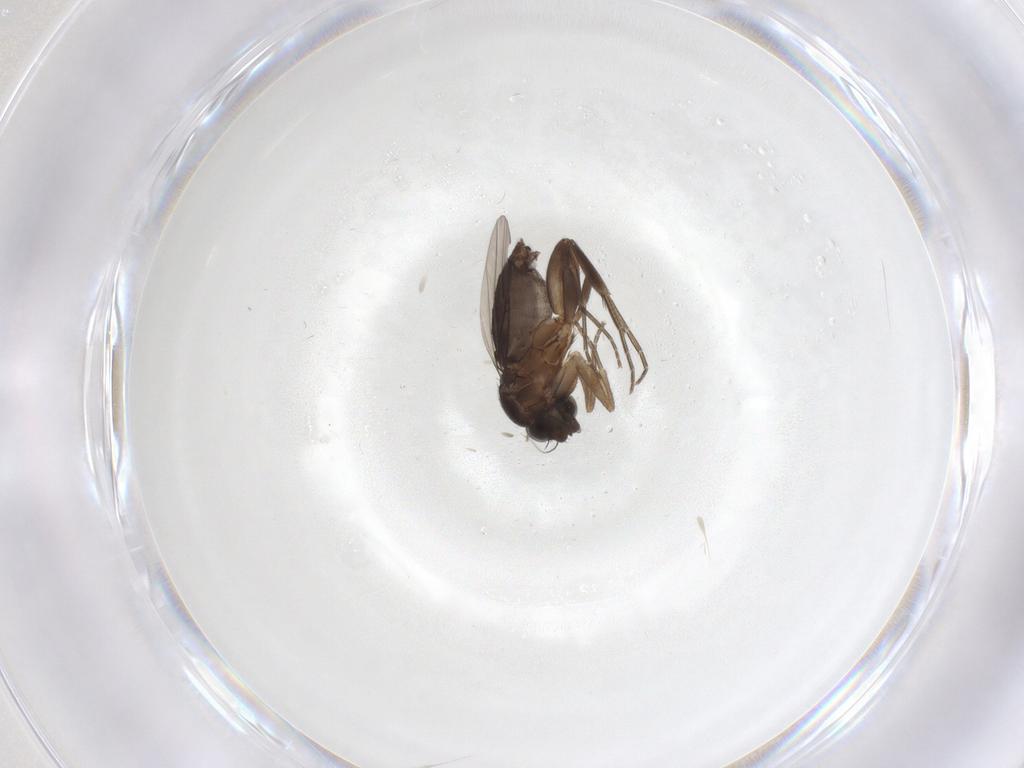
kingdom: Animalia
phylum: Arthropoda
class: Insecta
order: Diptera
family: Phoridae
